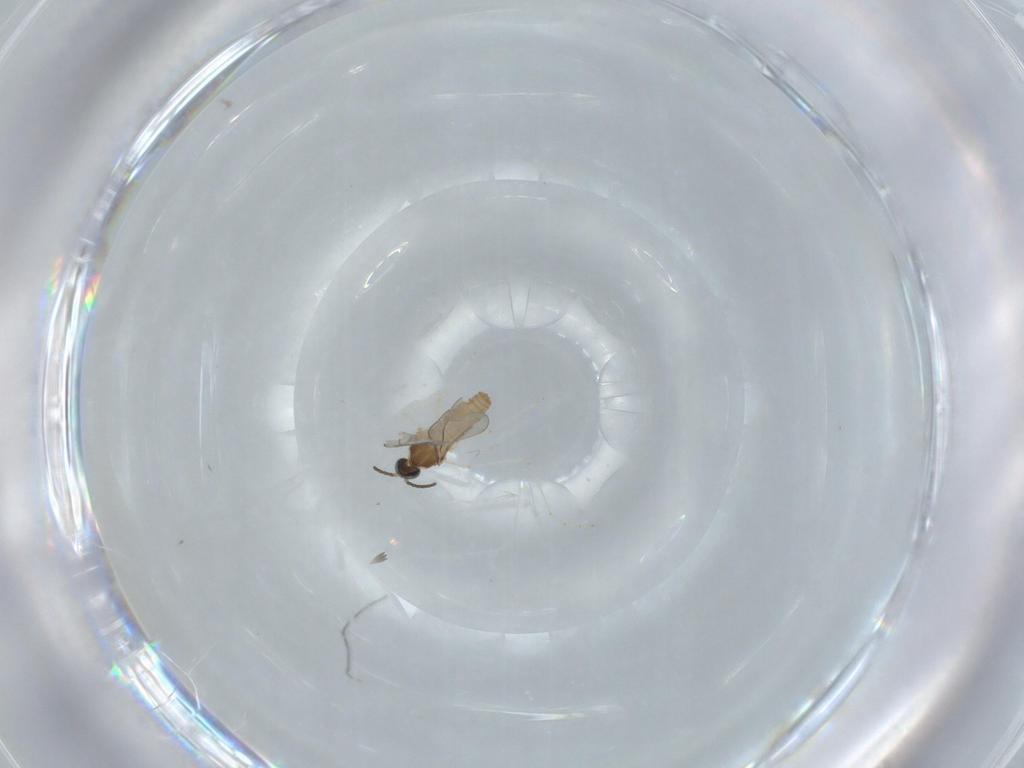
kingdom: Animalia
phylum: Arthropoda
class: Insecta
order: Diptera
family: Cecidomyiidae
